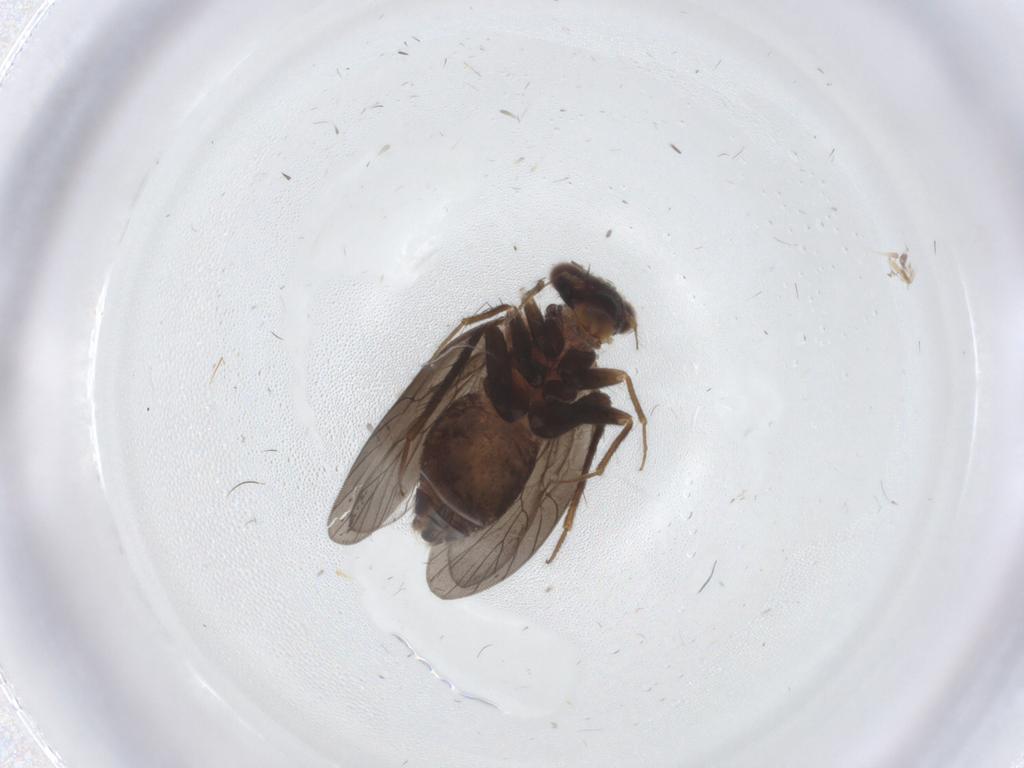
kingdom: Animalia
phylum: Arthropoda
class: Insecta
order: Psocodea
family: Lepidopsocidae
